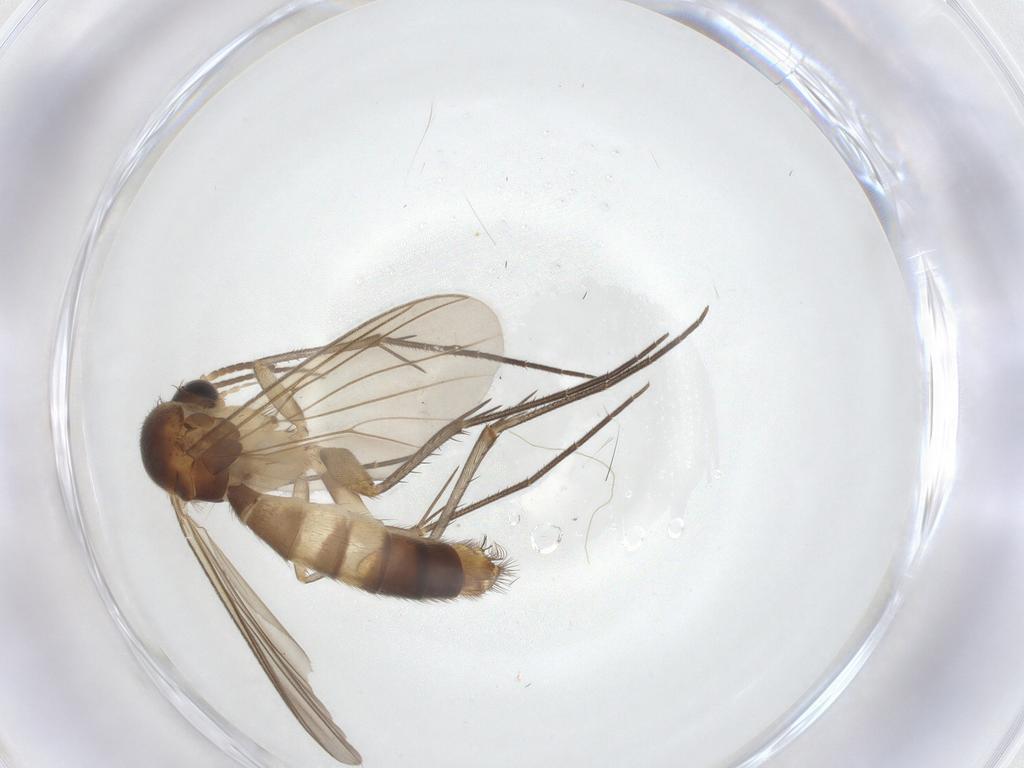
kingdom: Animalia
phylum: Arthropoda
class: Insecta
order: Diptera
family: Mycetophilidae
